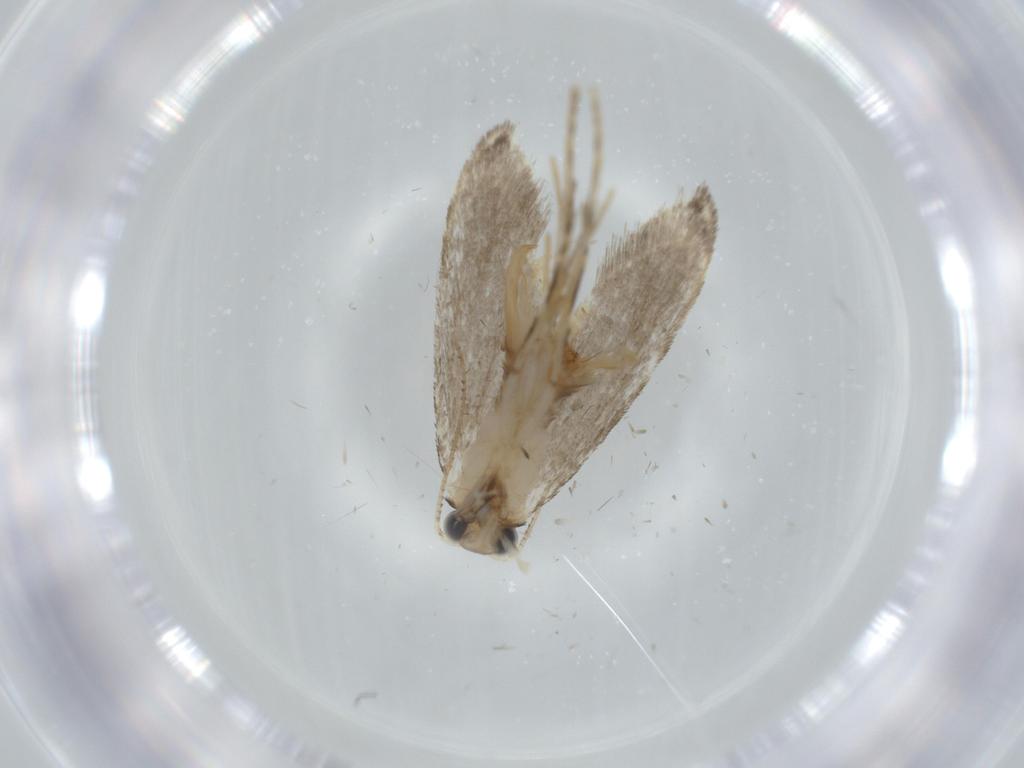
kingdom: Animalia
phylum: Arthropoda
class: Insecta
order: Lepidoptera
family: Tineidae
